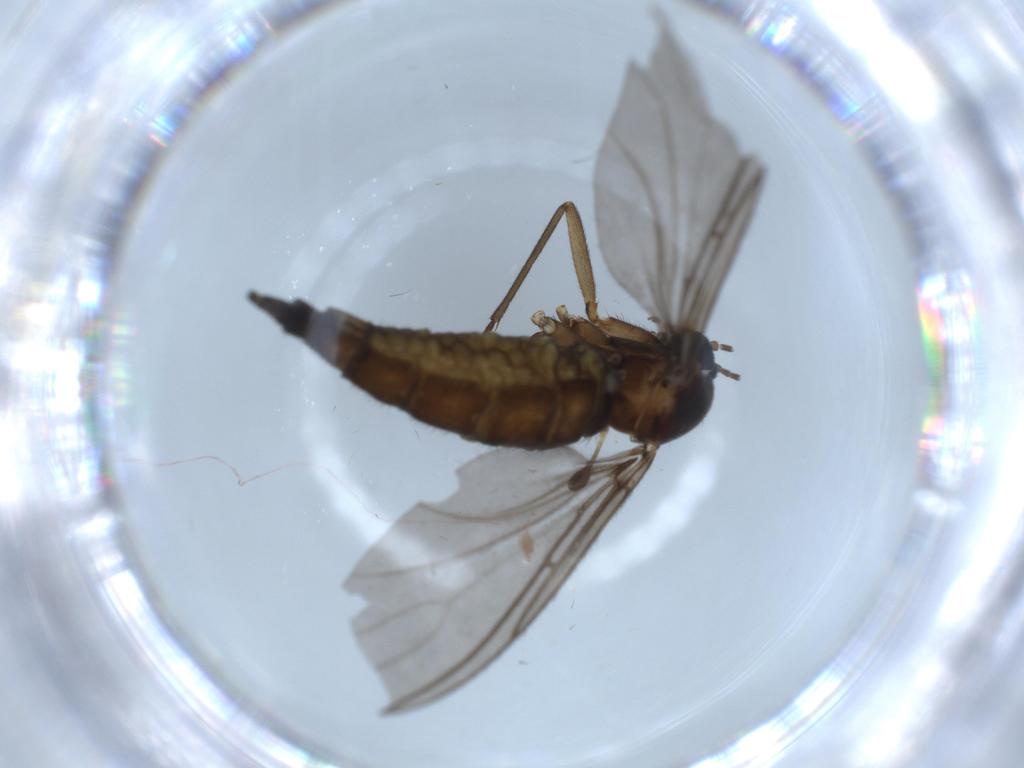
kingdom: Animalia
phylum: Arthropoda
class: Insecta
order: Diptera
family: Sciaridae
